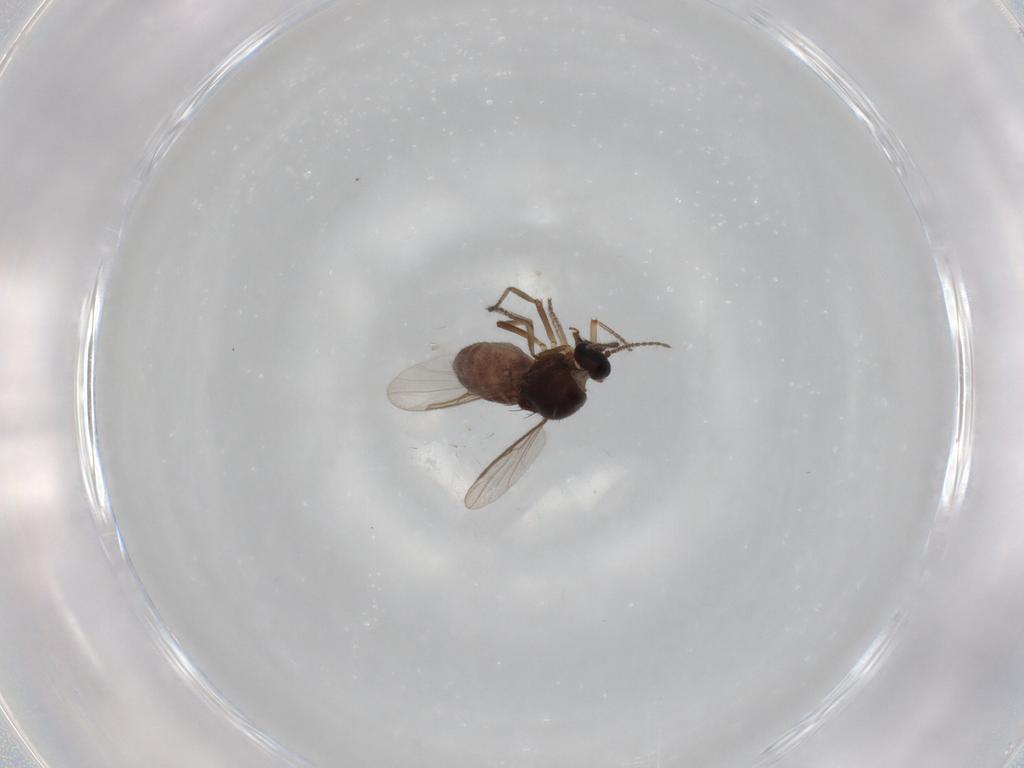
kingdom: Animalia
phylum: Arthropoda
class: Insecta
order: Diptera
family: Ceratopogonidae
